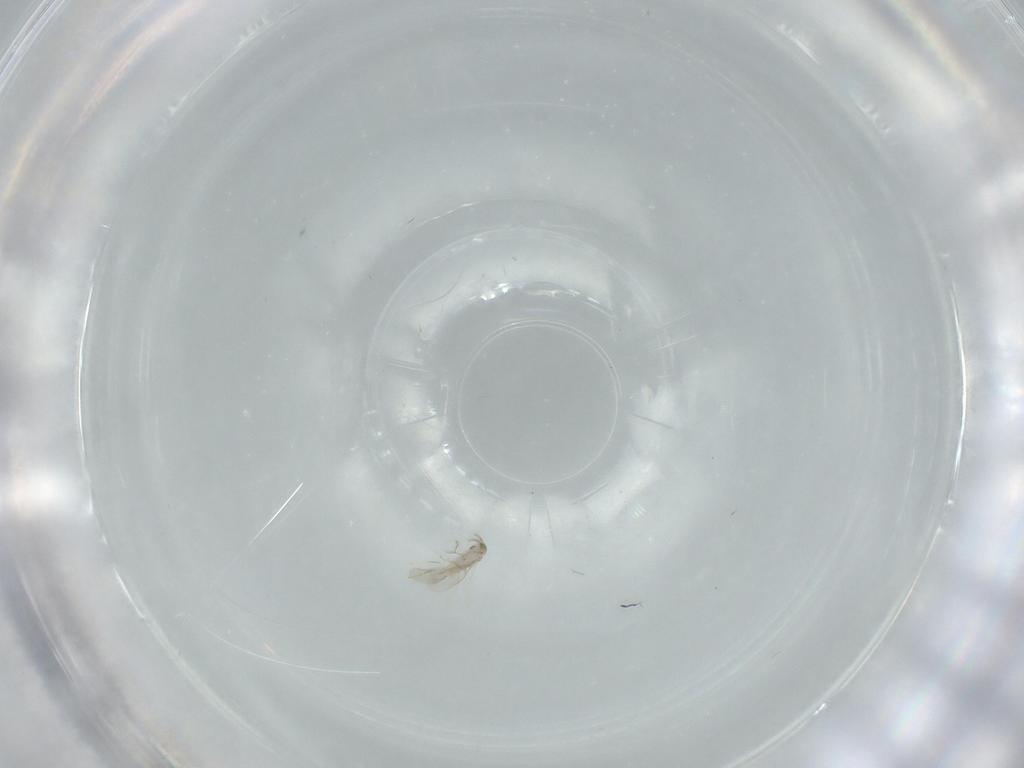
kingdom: Animalia
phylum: Arthropoda
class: Insecta
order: Hymenoptera
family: Aphelinidae
